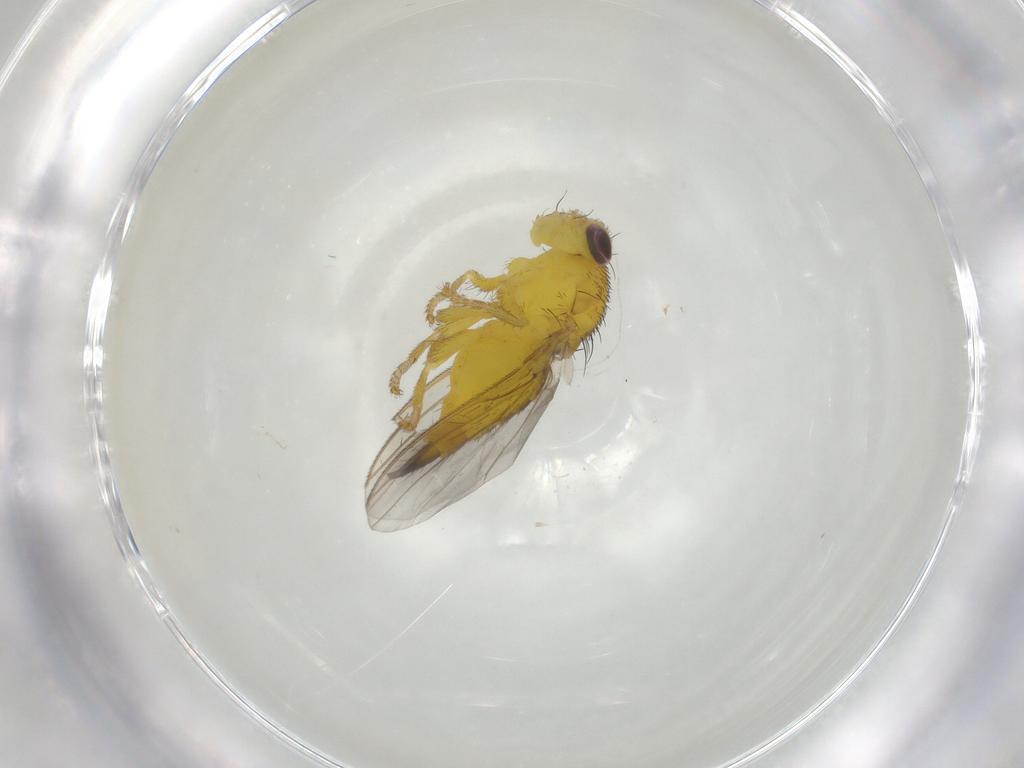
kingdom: Animalia
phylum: Arthropoda
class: Insecta
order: Diptera
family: Fergusoninidae
